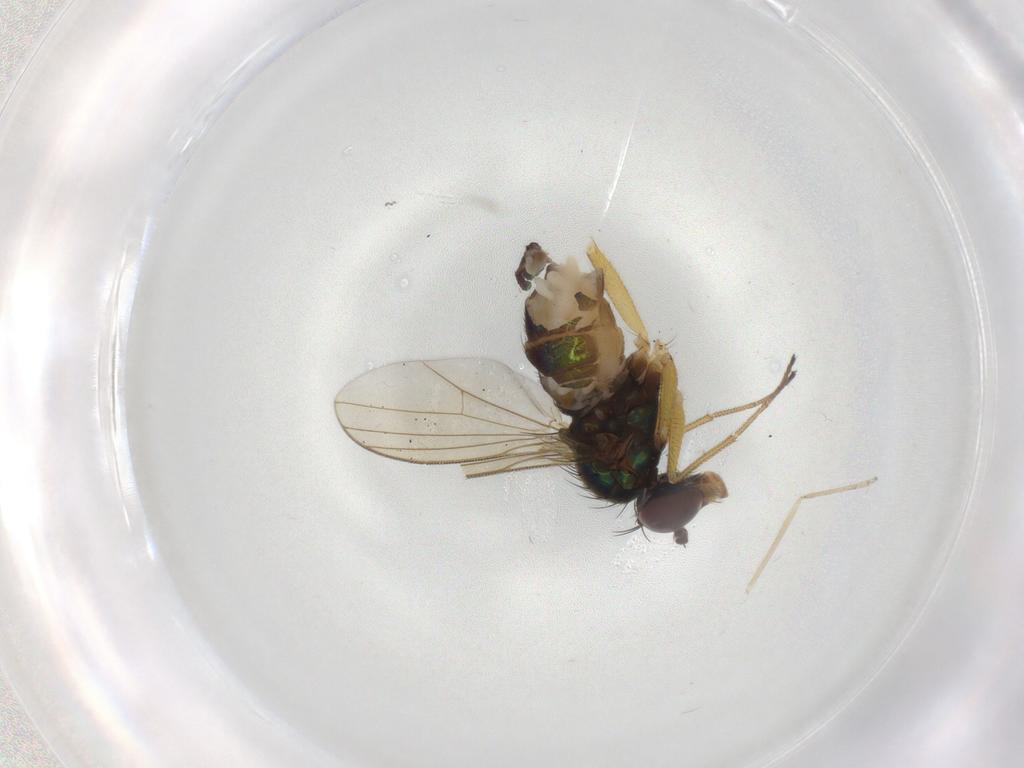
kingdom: Animalia
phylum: Arthropoda
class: Insecta
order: Diptera
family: Dolichopodidae
